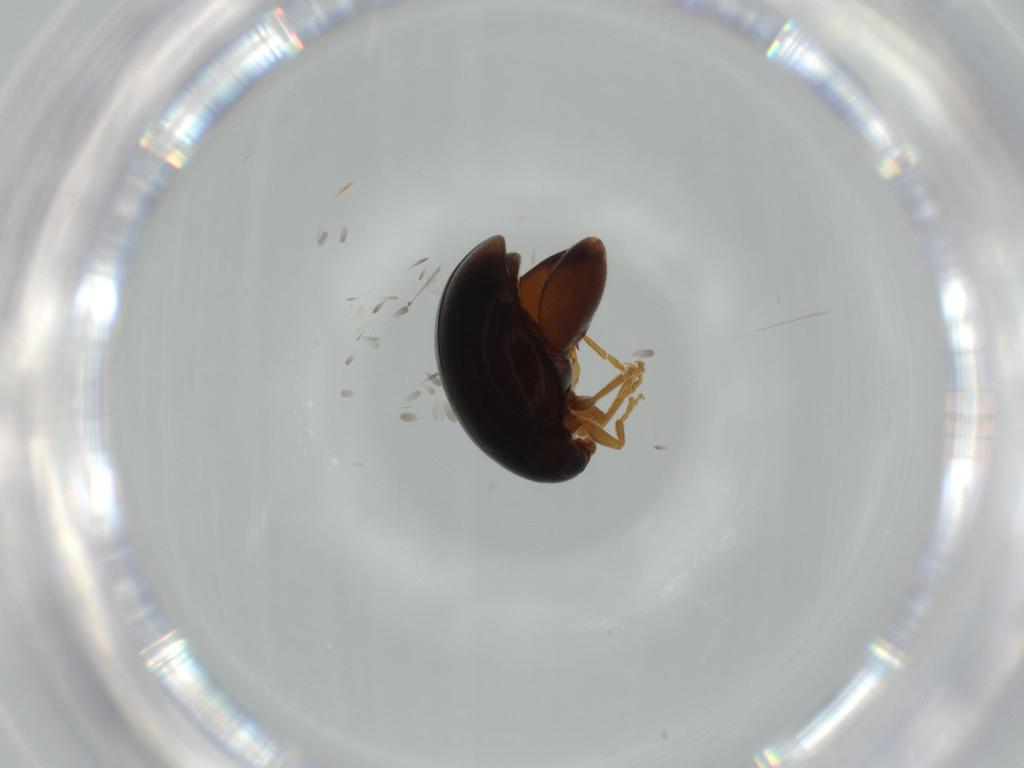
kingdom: Animalia
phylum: Arthropoda
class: Insecta
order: Coleoptera
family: Chrysomelidae
